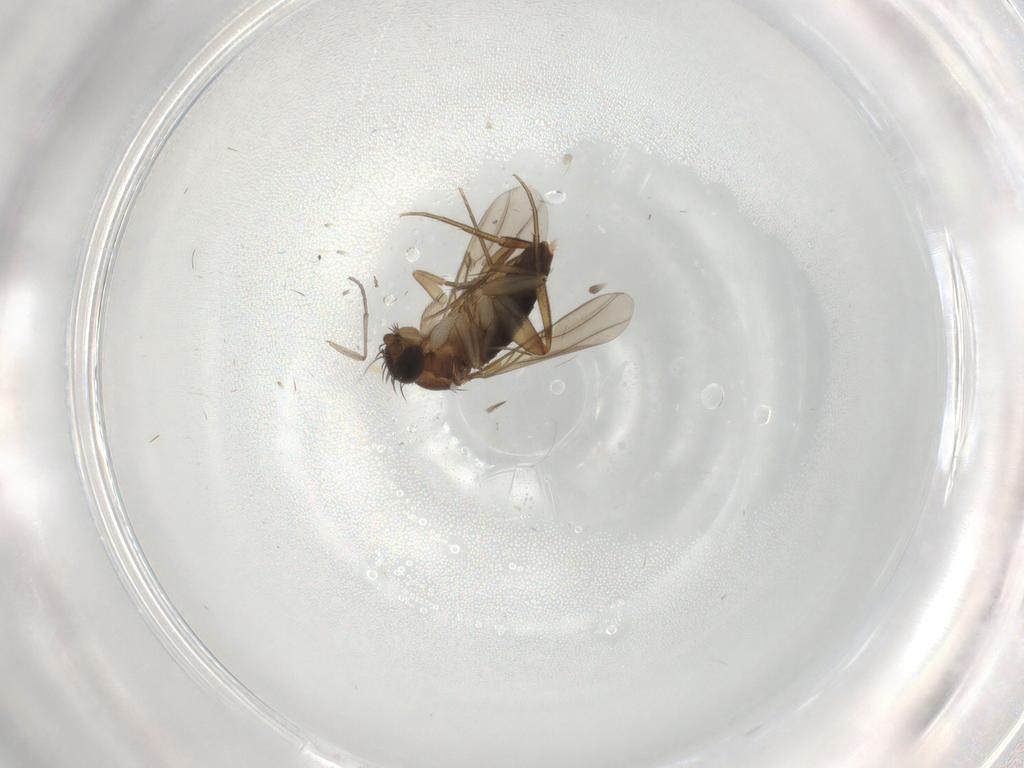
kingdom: Animalia
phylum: Arthropoda
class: Insecta
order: Diptera
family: Phoridae
